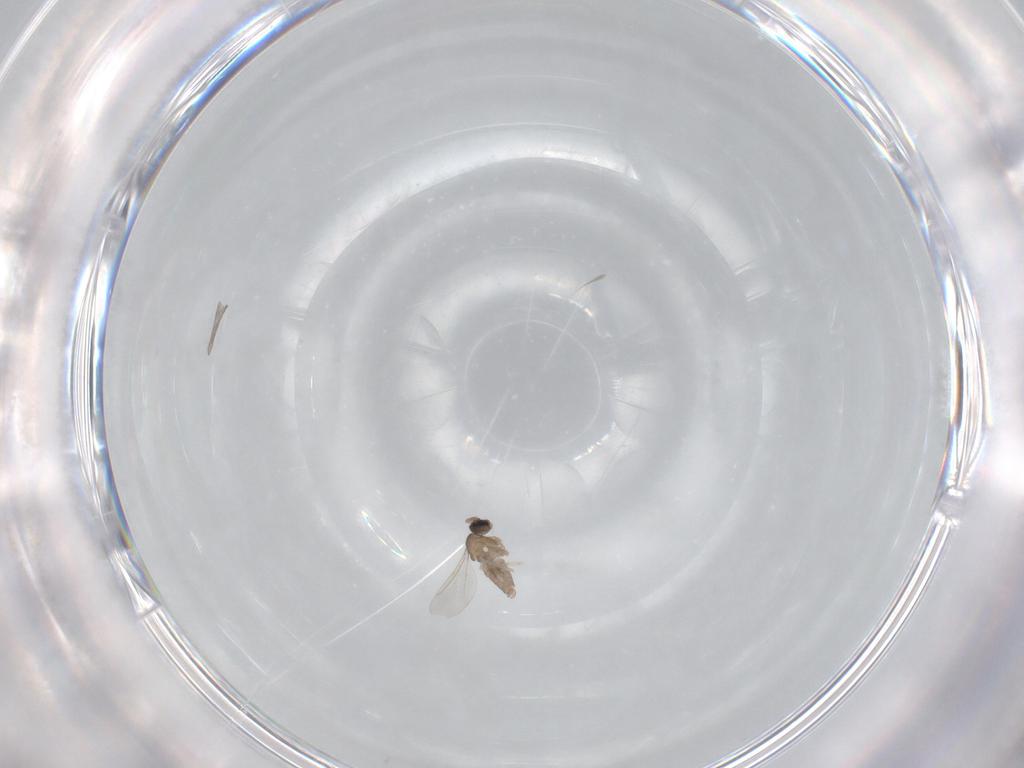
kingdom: Animalia
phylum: Arthropoda
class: Insecta
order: Diptera
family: Cecidomyiidae
